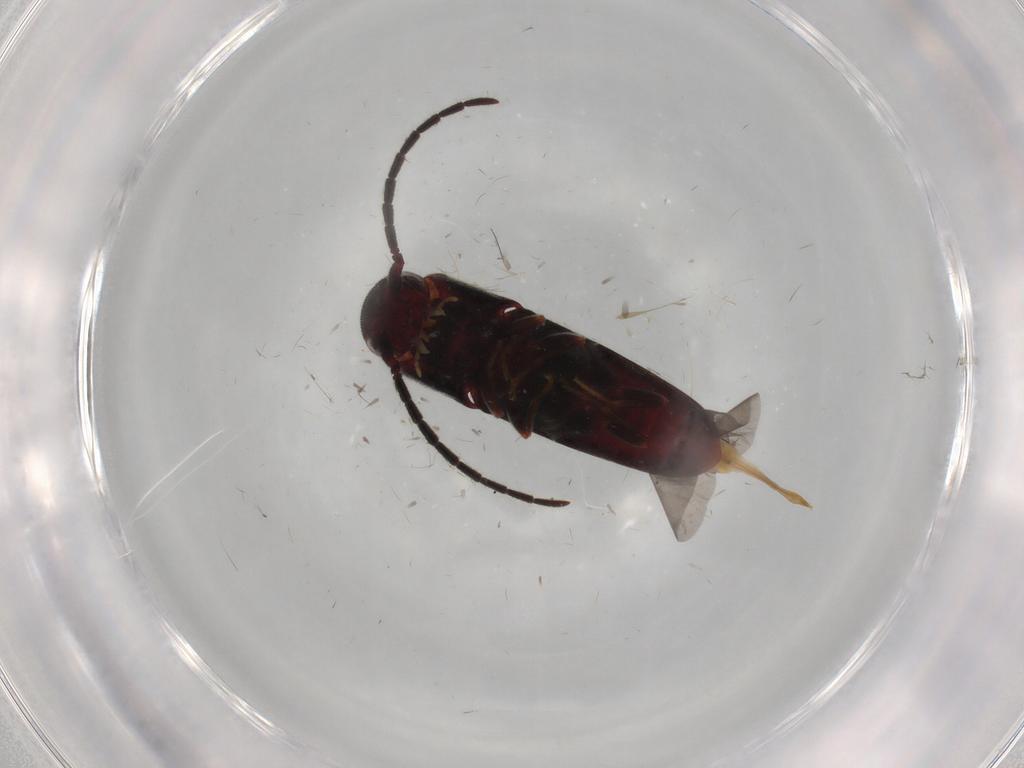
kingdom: Animalia
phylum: Arthropoda
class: Insecta
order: Coleoptera
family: Eucnemidae
